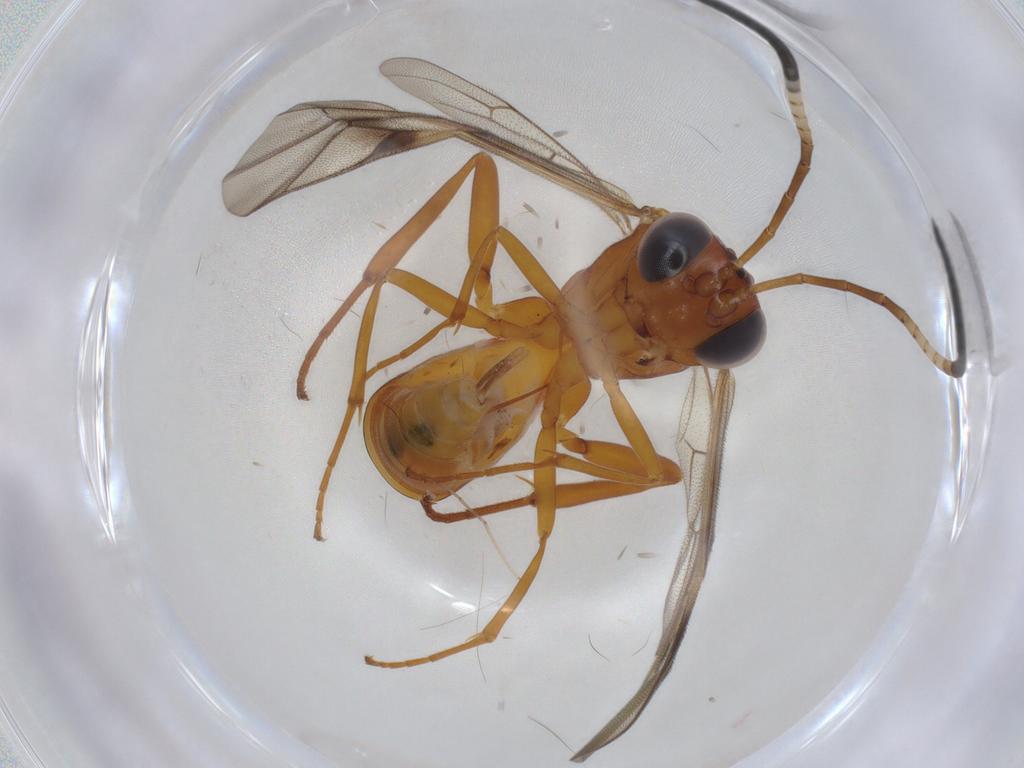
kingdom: Animalia
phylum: Arthropoda
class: Insecta
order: Hymenoptera
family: Ichneumonidae
